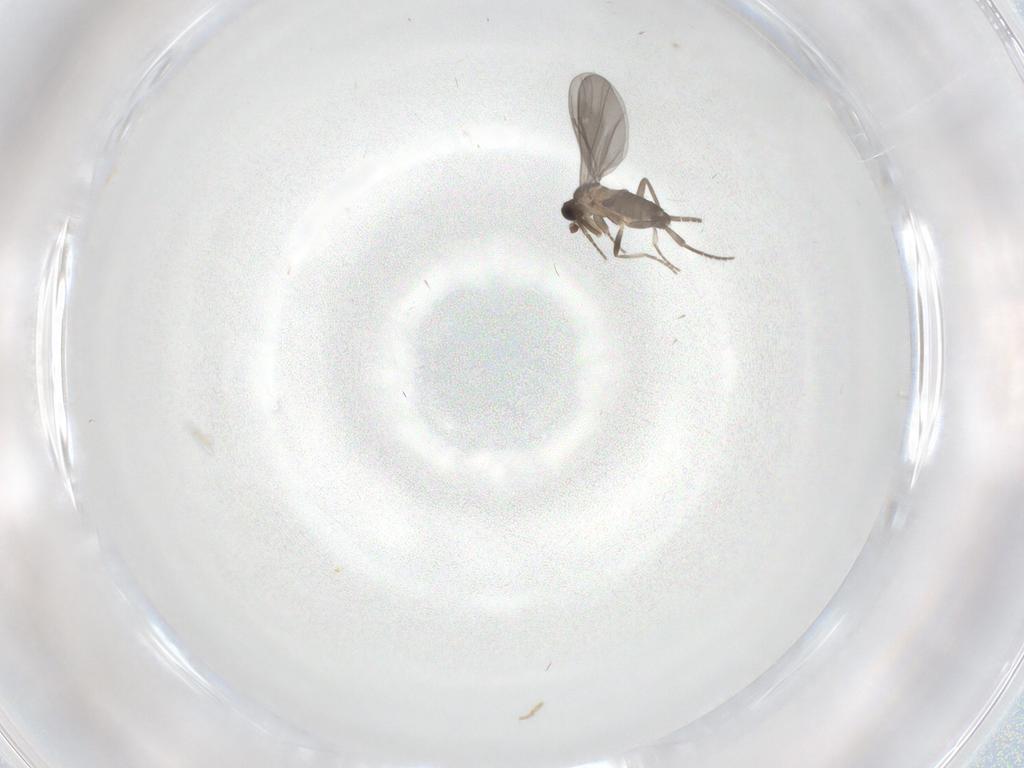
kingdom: Animalia
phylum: Arthropoda
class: Insecta
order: Diptera
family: Phoridae
